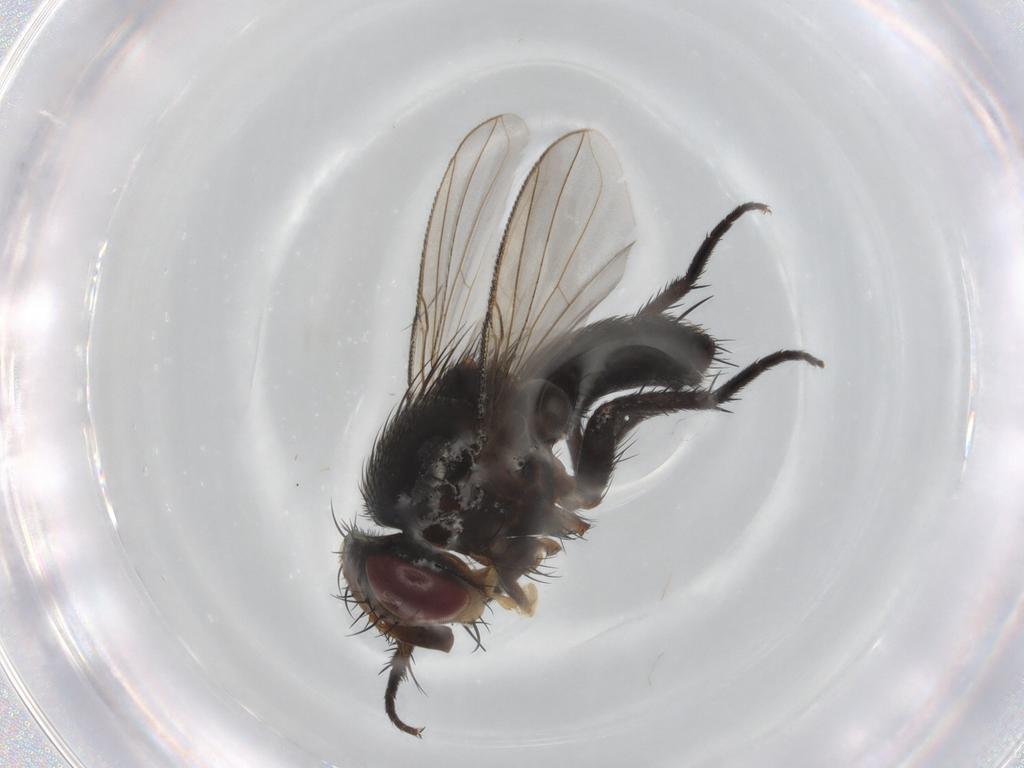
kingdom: Animalia
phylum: Arthropoda
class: Insecta
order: Diptera
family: Tachinidae
